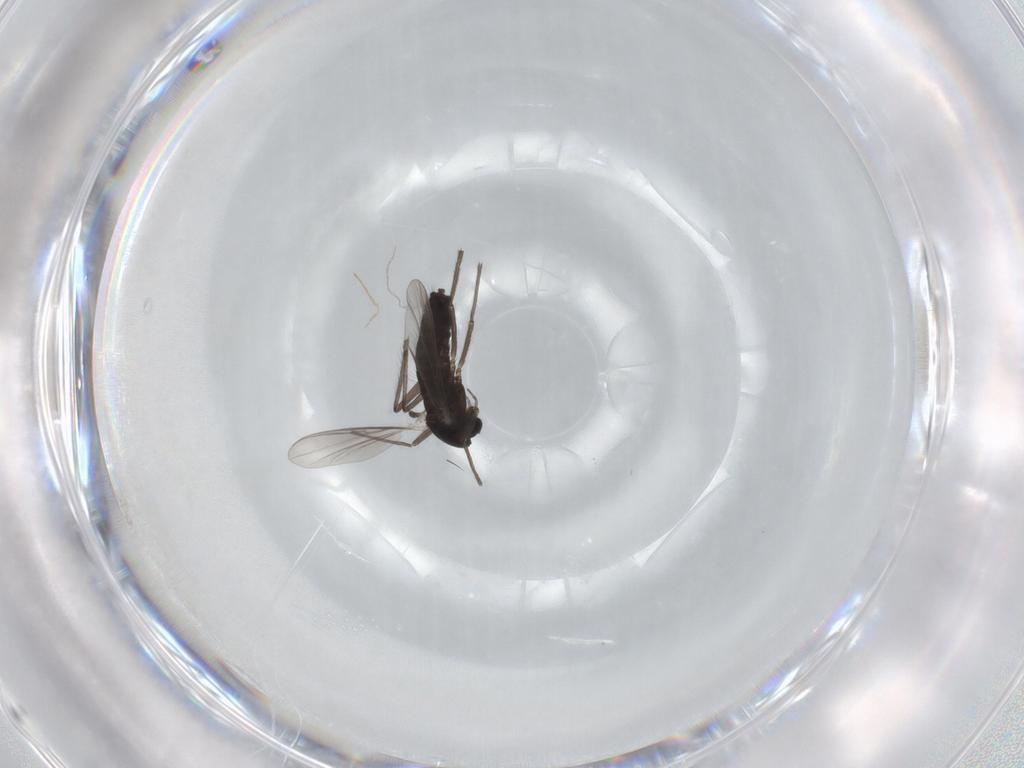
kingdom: Animalia
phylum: Arthropoda
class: Insecta
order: Diptera
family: Chironomidae
